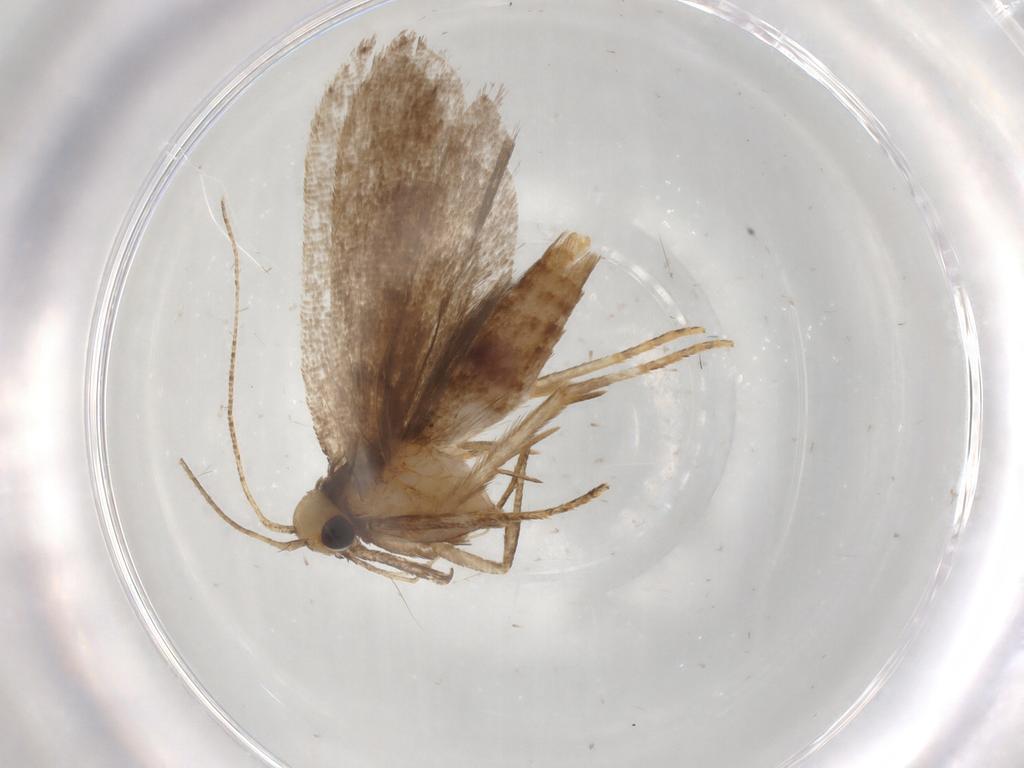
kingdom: Animalia
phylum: Arthropoda
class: Insecta
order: Lepidoptera
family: Gelechiidae
